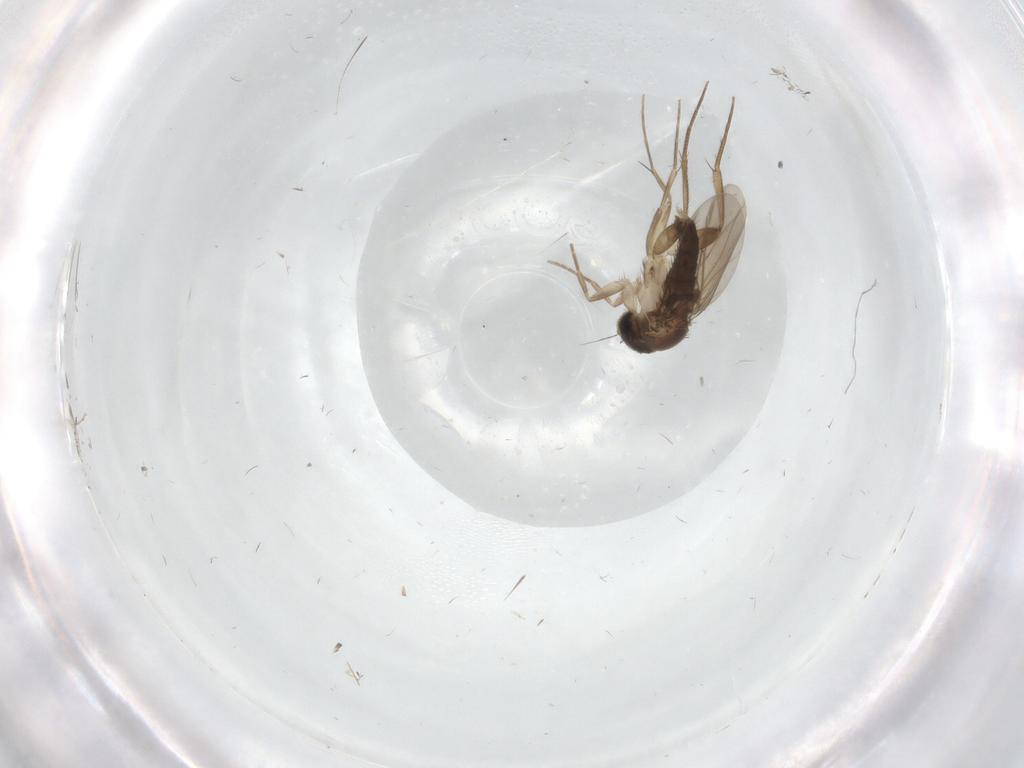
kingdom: Animalia
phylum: Arthropoda
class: Insecta
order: Diptera
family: Phoridae
